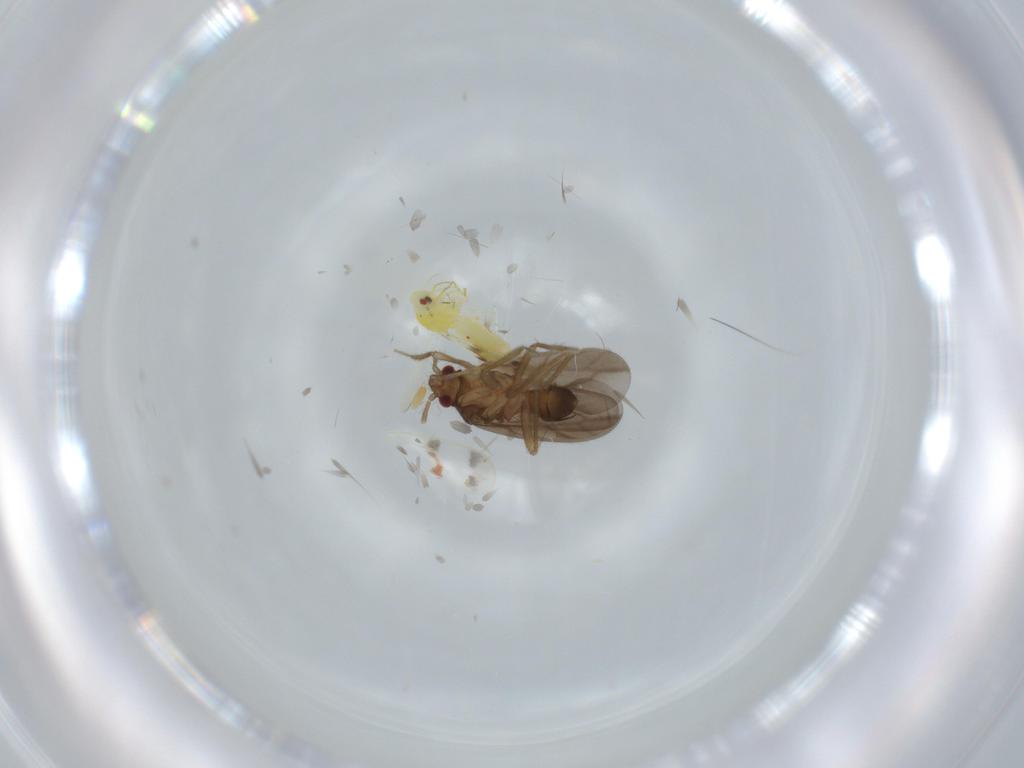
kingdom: Animalia
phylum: Arthropoda
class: Insecta
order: Hemiptera
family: Ceratocombidae
